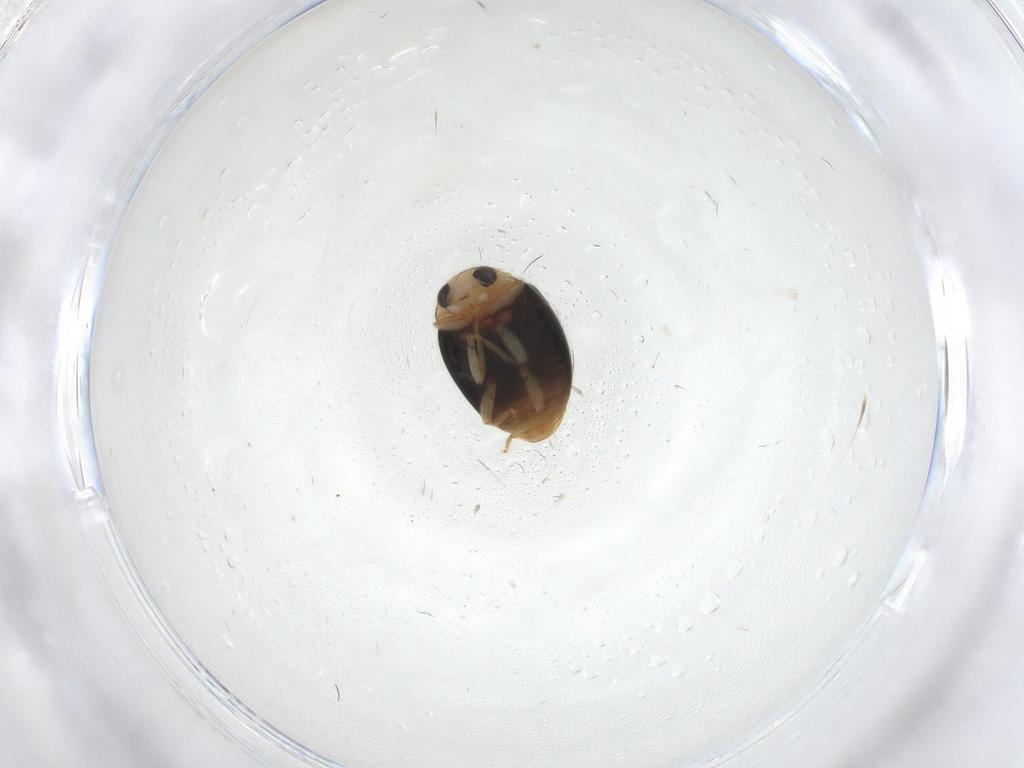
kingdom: Animalia
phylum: Arthropoda
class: Insecta
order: Coleoptera
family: Coccinellidae
